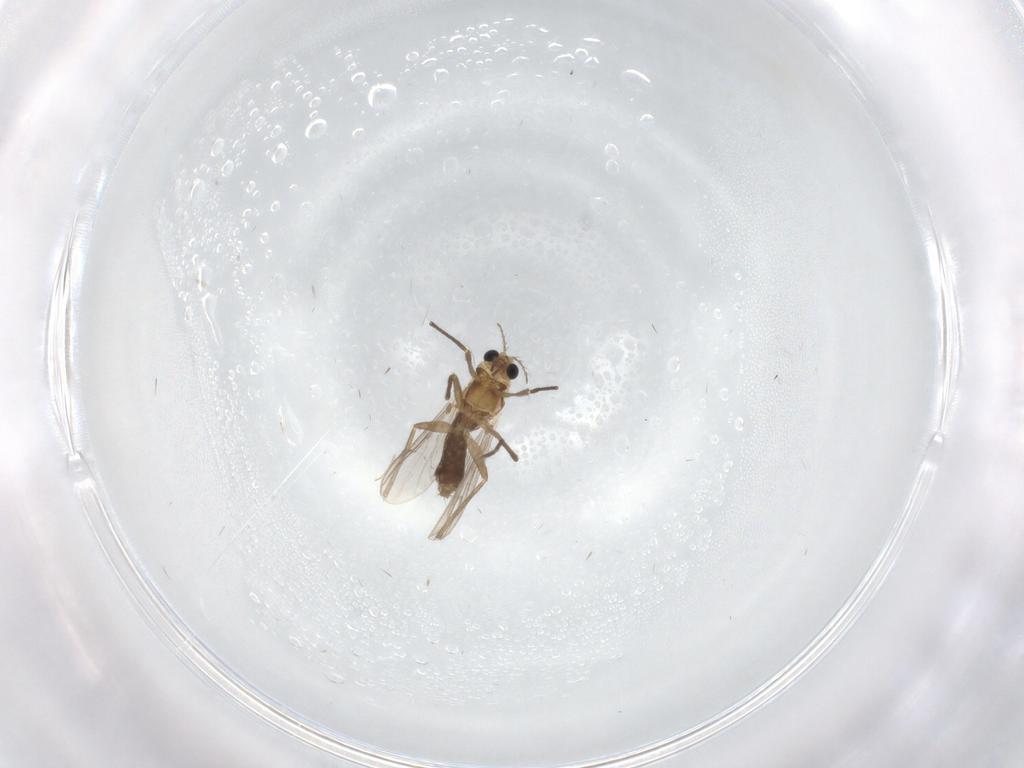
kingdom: Animalia
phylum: Arthropoda
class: Insecta
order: Diptera
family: Chironomidae
